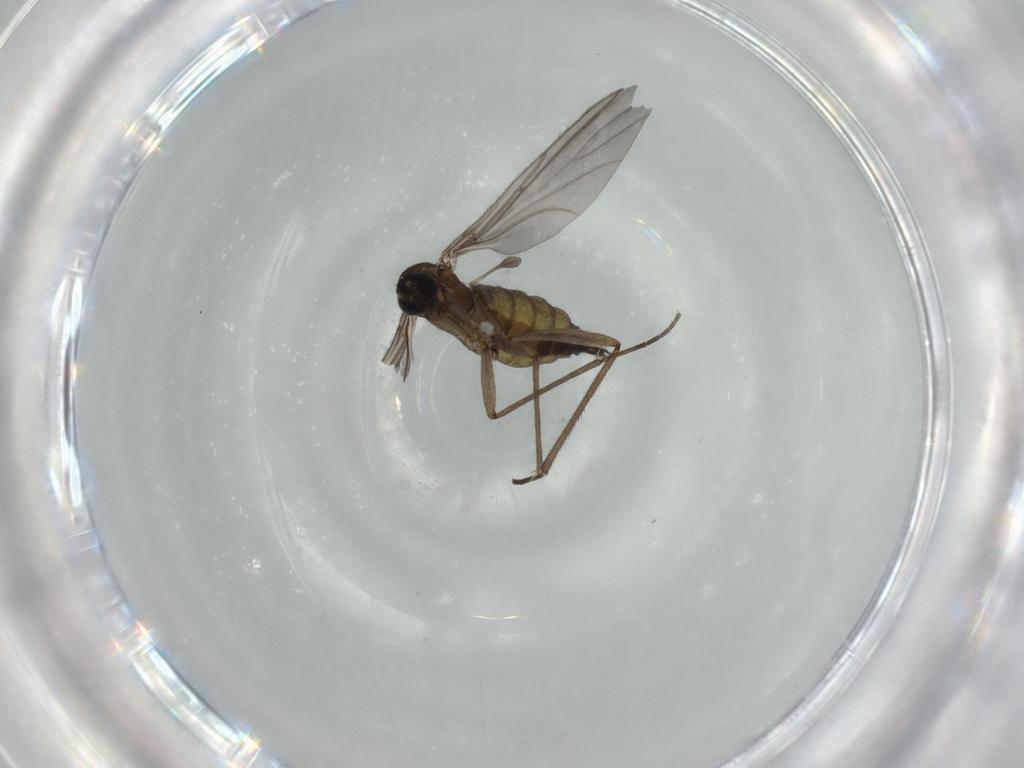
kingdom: Animalia
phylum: Arthropoda
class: Insecta
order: Diptera
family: Sciaridae
